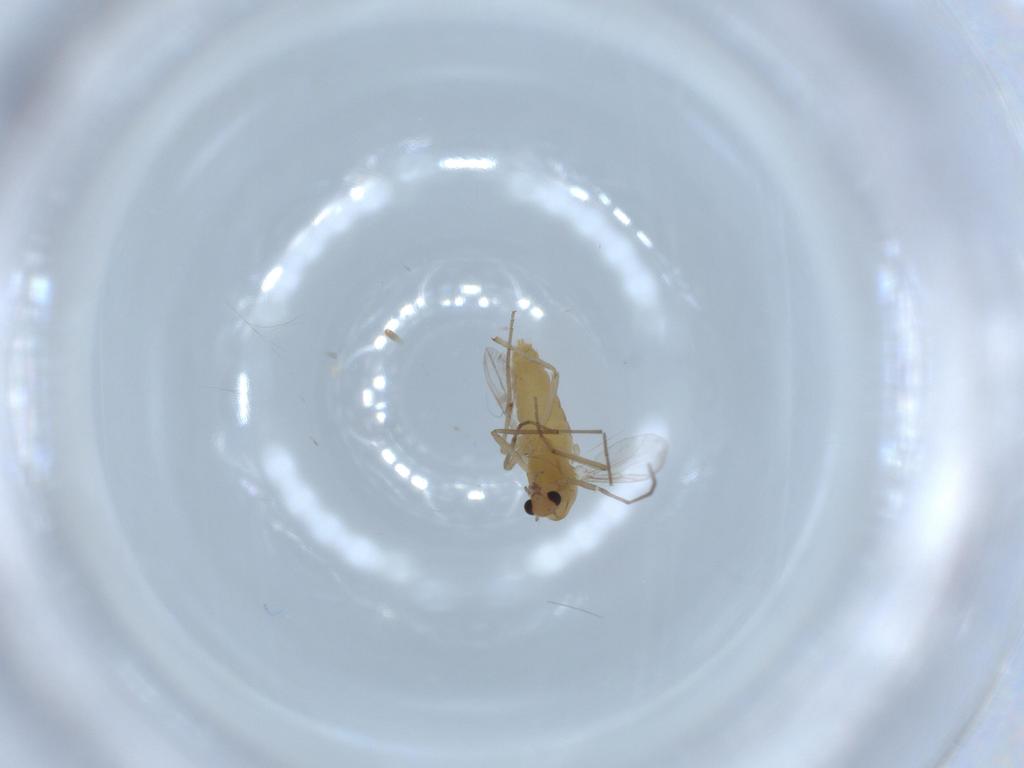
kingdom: Animalia
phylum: Arthropoda
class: Insecta
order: Diptera
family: Chironomidae
